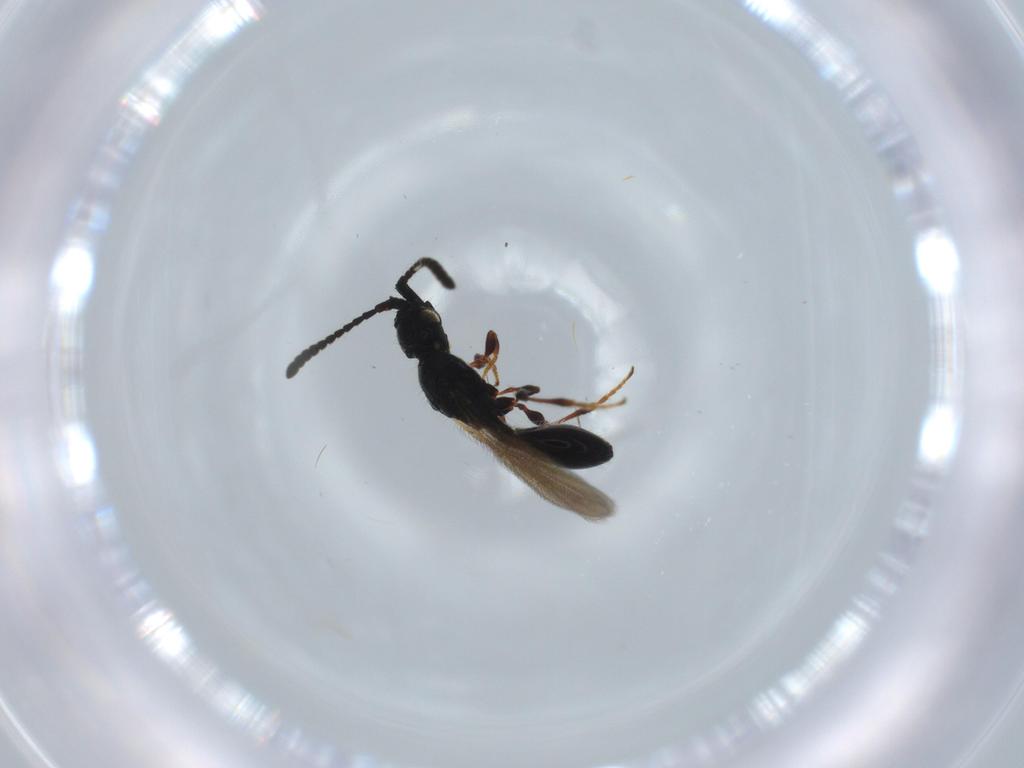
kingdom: Animalia
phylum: Arthropoda
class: Insecta
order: Hymenoptera
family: Diapriidae
